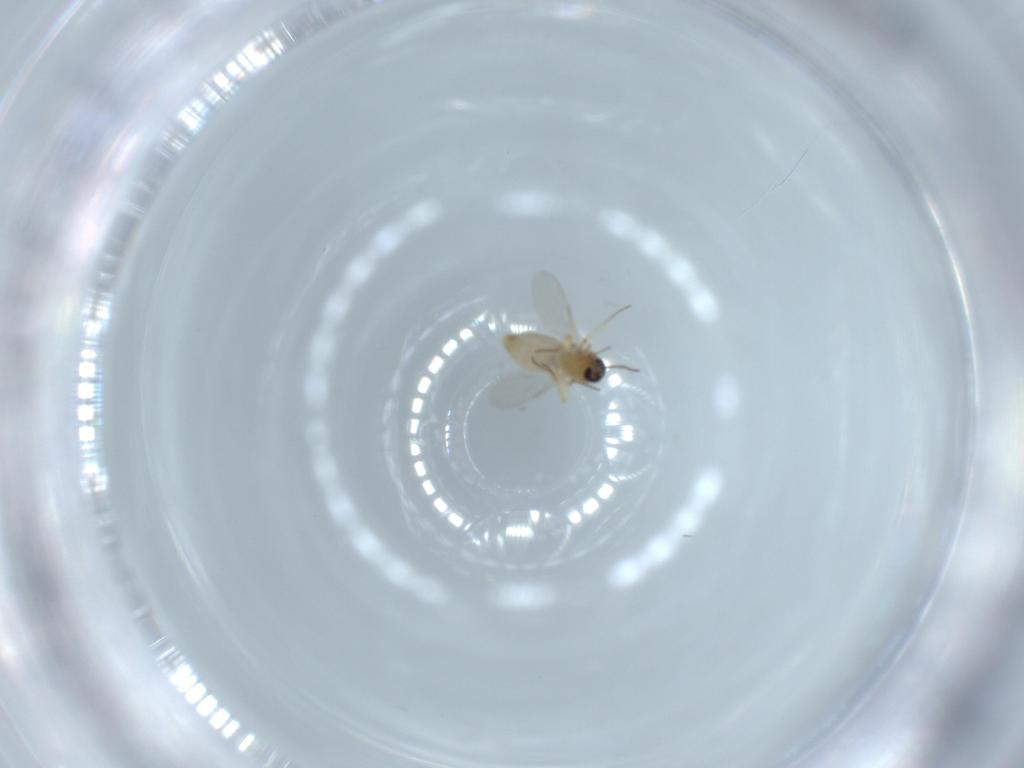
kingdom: Animalia
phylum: Arthropoda
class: Insecta
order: Diptera
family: Ceratopogonidae
